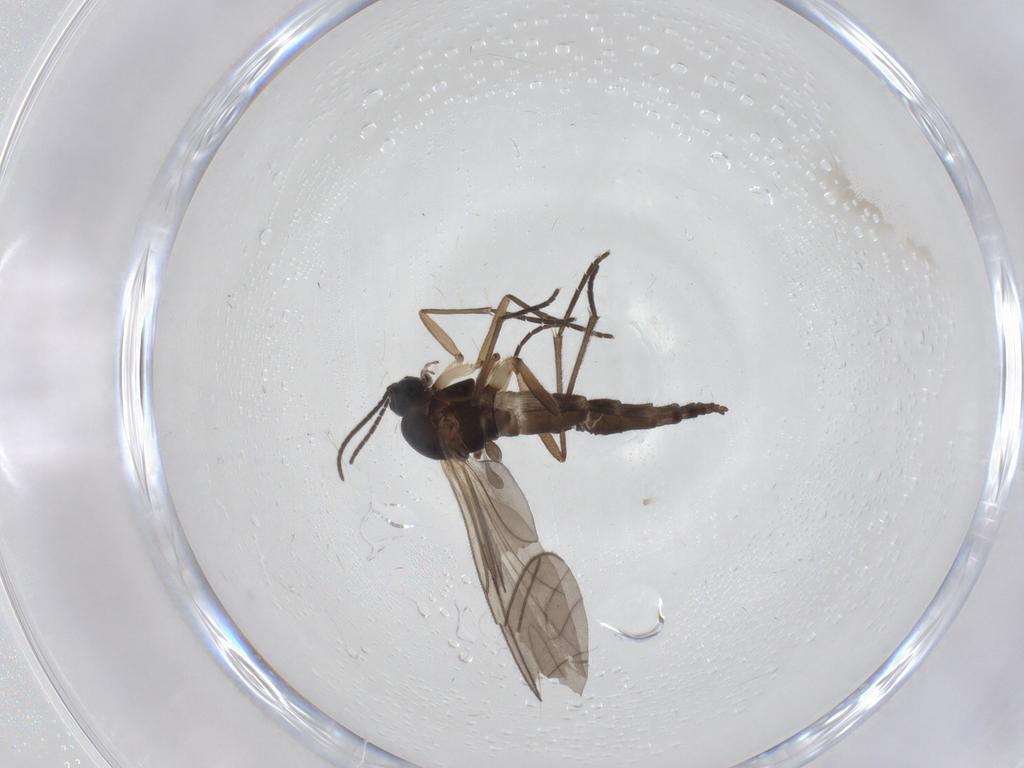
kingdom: Animalia
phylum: Arthropoda
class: Insecta
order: Diptera
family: Sciaridae
